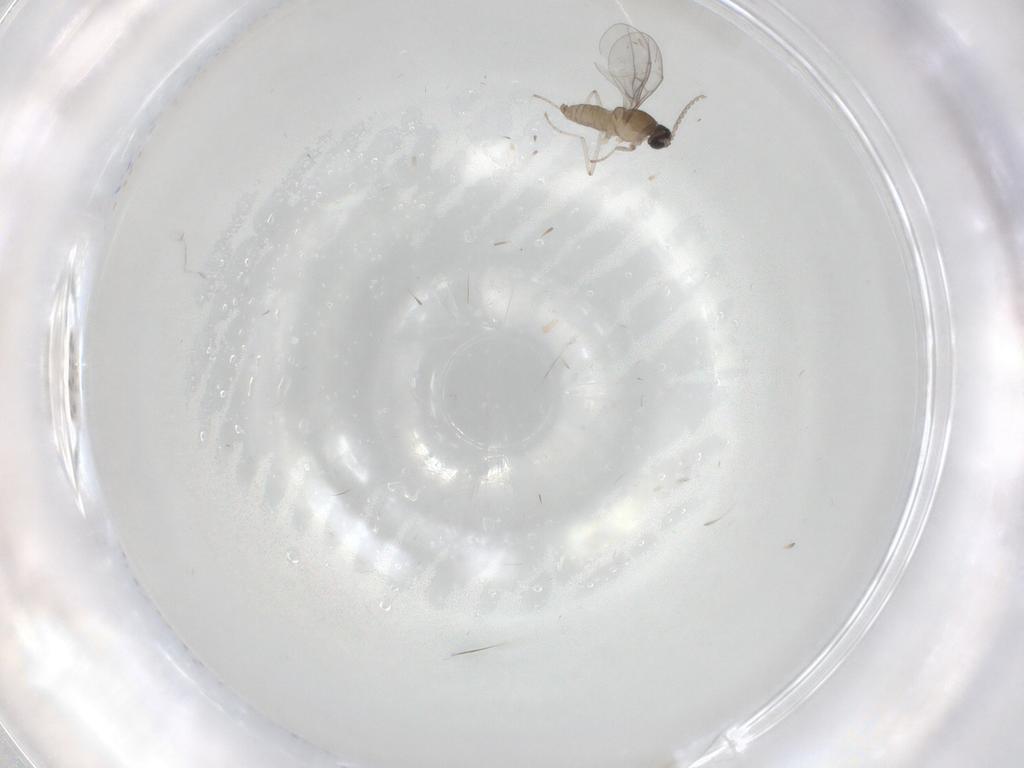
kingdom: Animalia
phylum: Arthropoda
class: Insecta
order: Diptera
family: Cecidomyiidae
